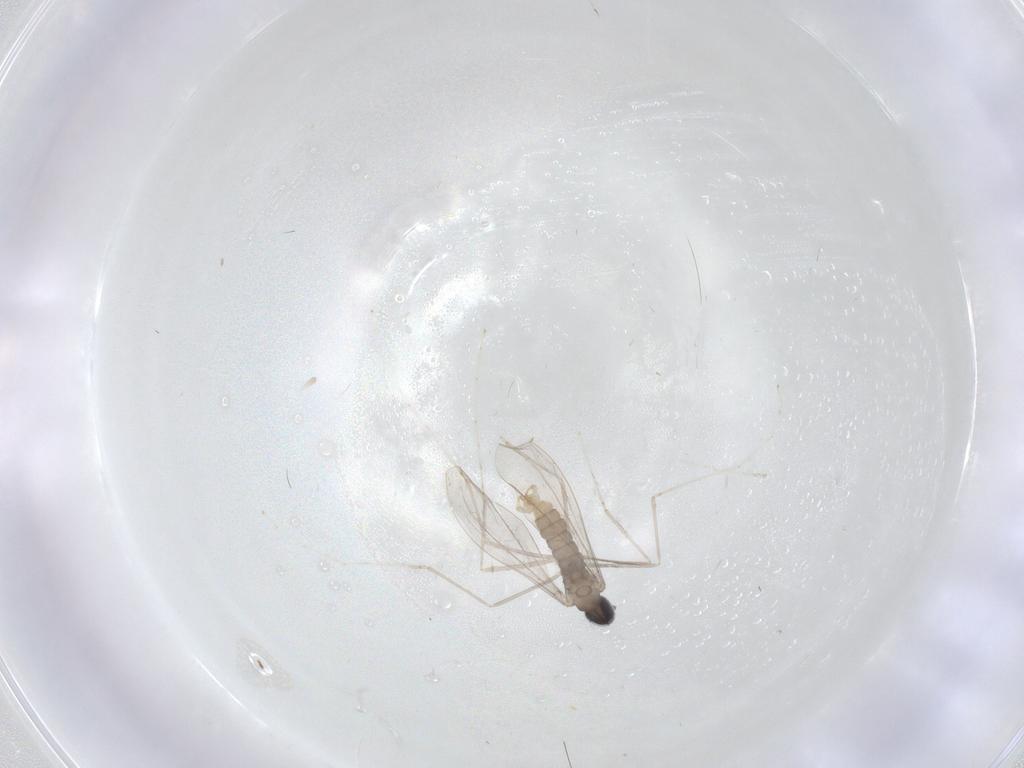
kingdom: Animalia
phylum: Arthropoda
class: Insecta
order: Diptera
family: Cecidomyiidae
